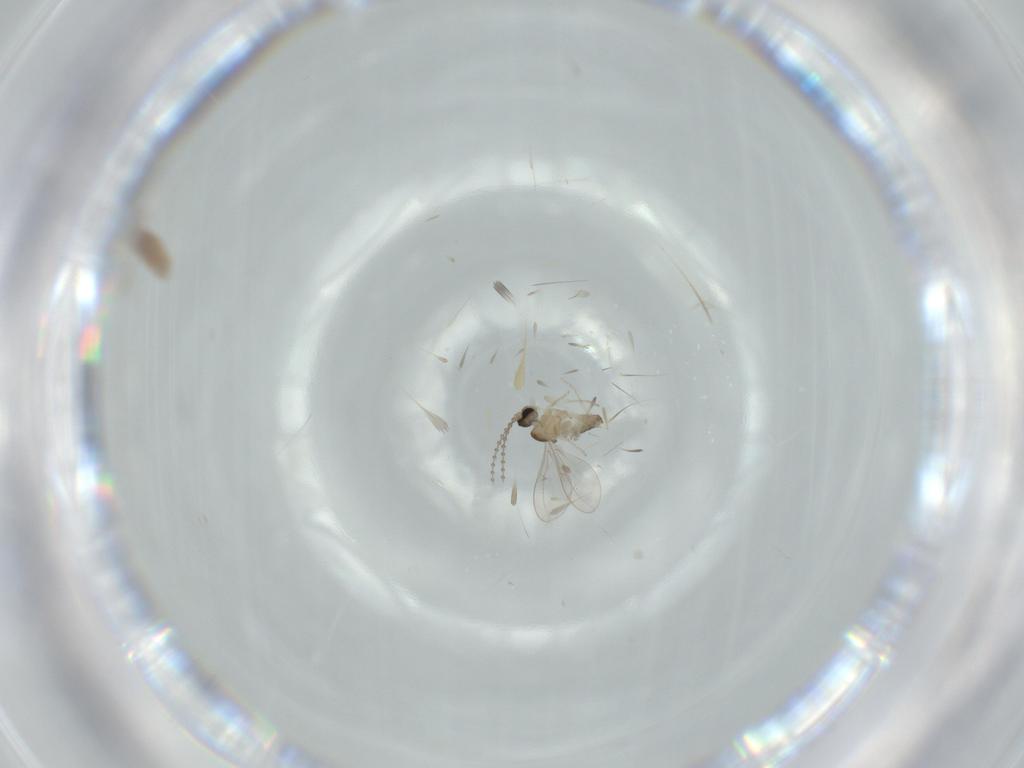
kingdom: Animalia
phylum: Arthropoda
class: Insecta
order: Diptera
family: Cecidomyiidae
